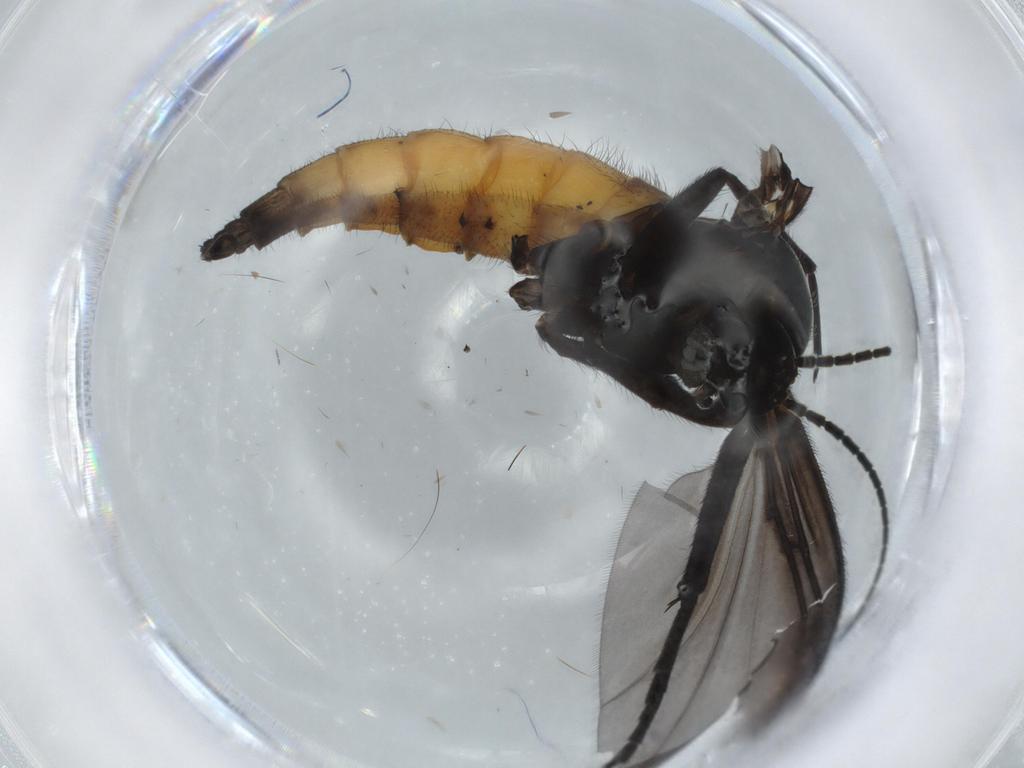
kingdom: Animalia
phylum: Arthropoda
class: Insecta
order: Diptera
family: Sciaridae
